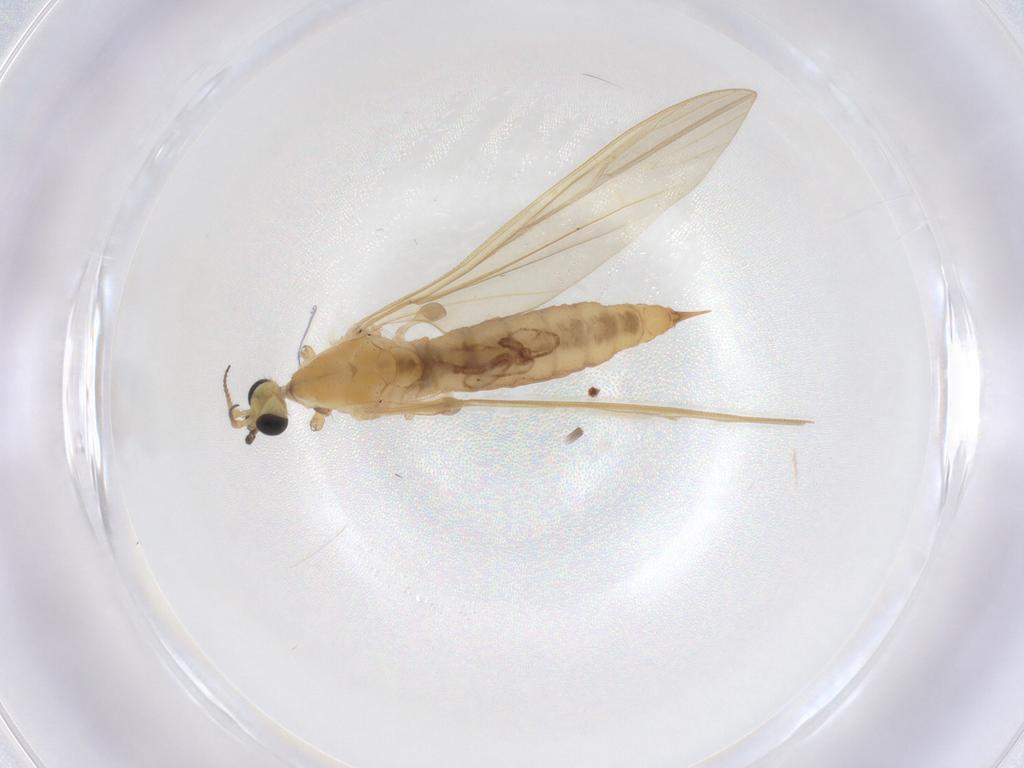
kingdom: Animalia
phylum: Arthropoda
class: Insecta
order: Diptera
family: Limoniidae
